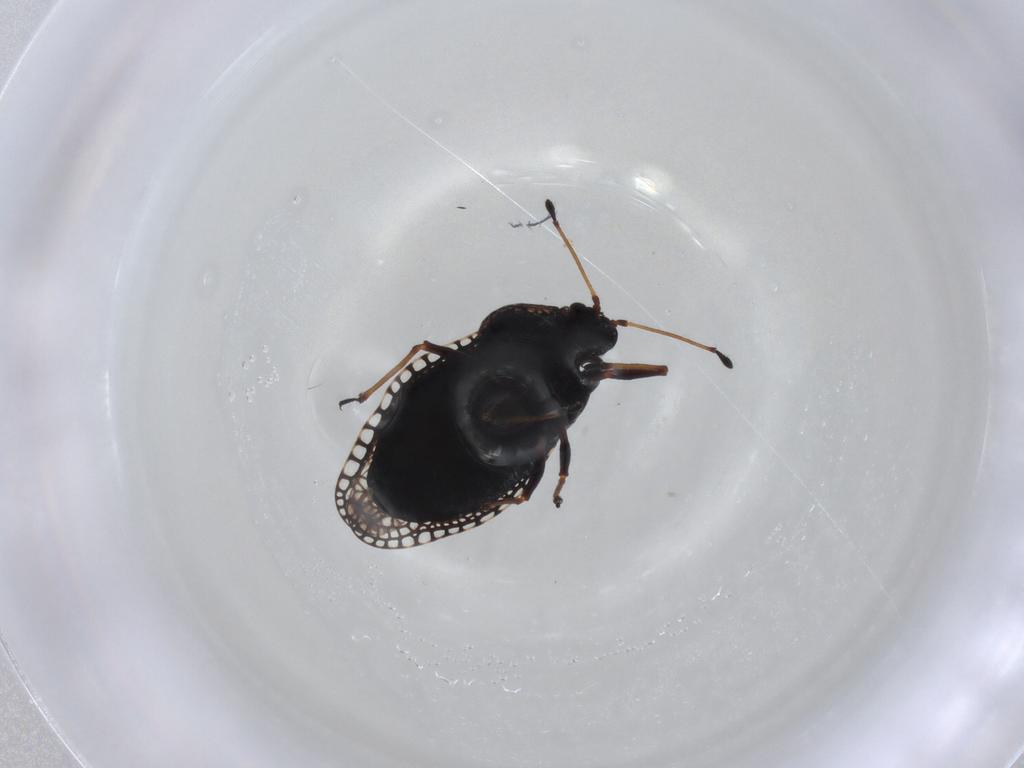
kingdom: Animalia
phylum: Arthropoda
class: Insecta
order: Hemiptera
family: Tingidae
